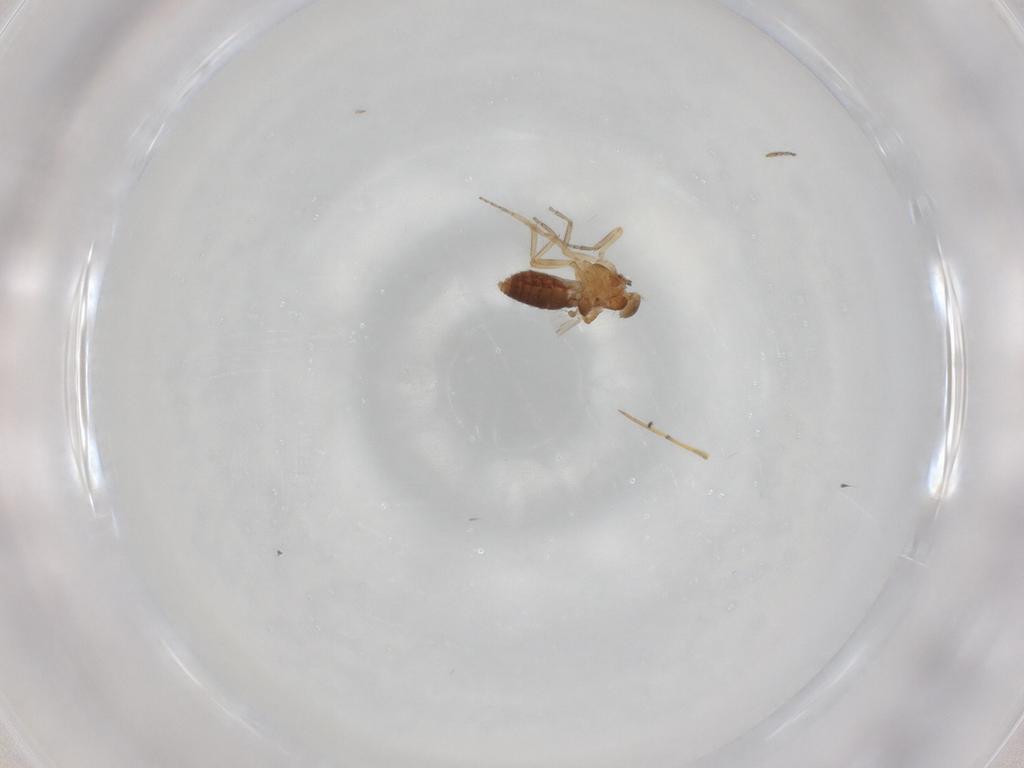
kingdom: Animalia
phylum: Arthropoda
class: Insecta
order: Diptera
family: Ceratopogonidae
